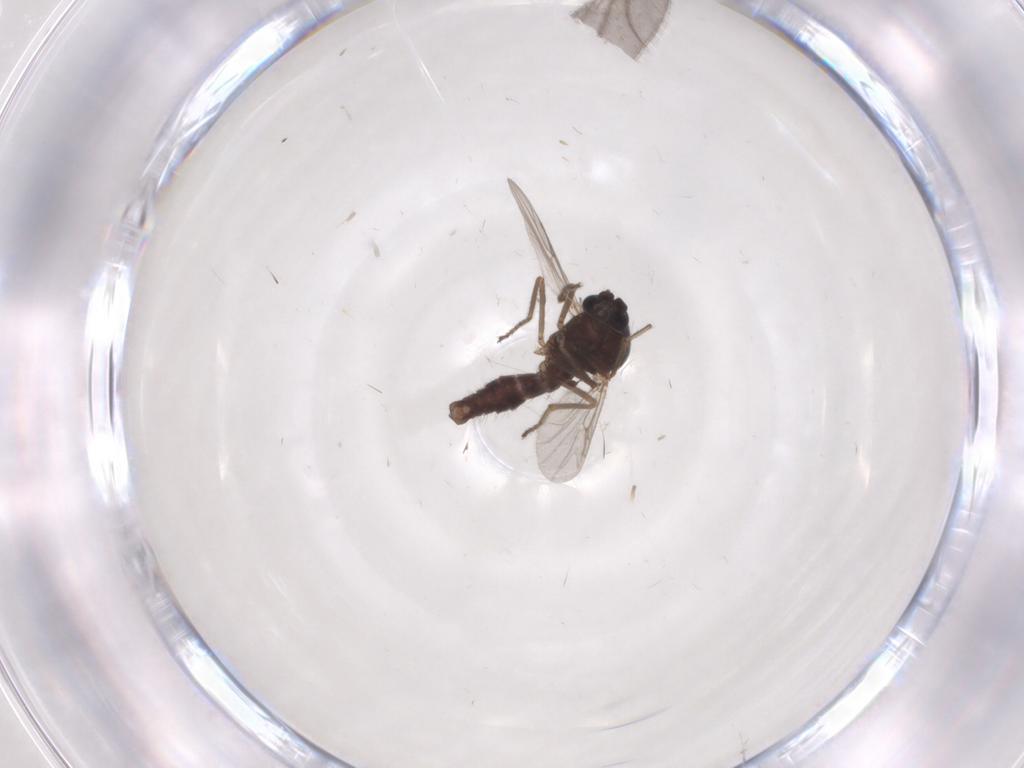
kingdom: Animalia
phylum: Arthropoda
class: Insecta
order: Diptera
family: Ceratopogonidae
